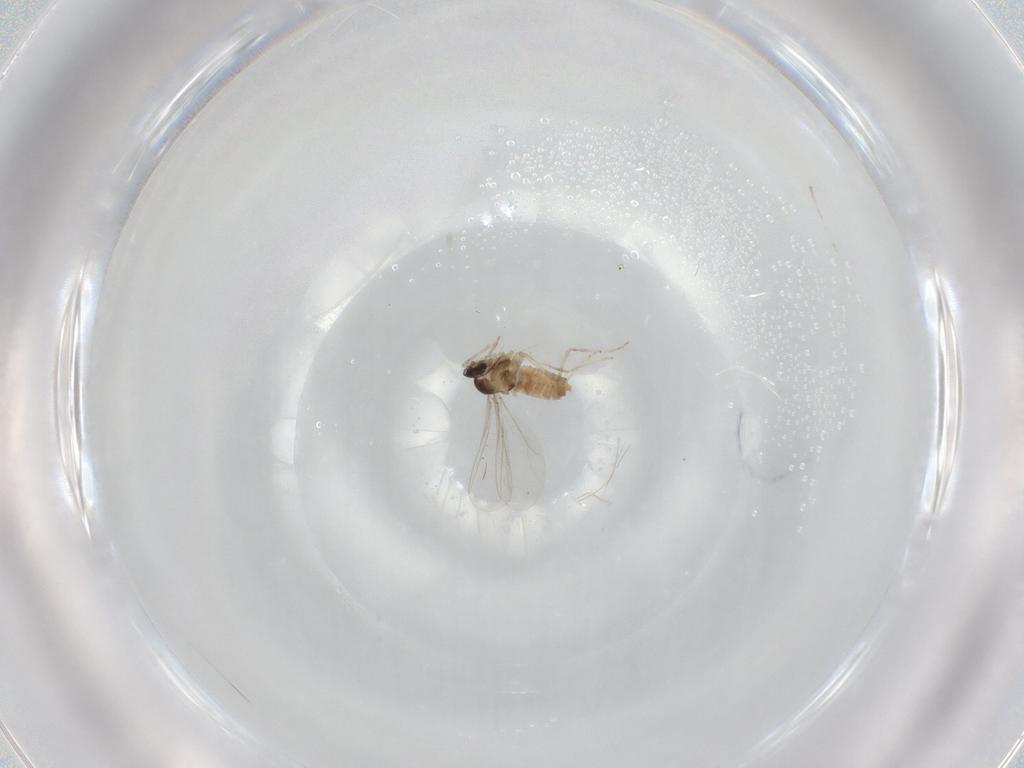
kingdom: Animalia
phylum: Arthropoda
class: Insecta
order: Diptera
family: Cecidomyiidae
